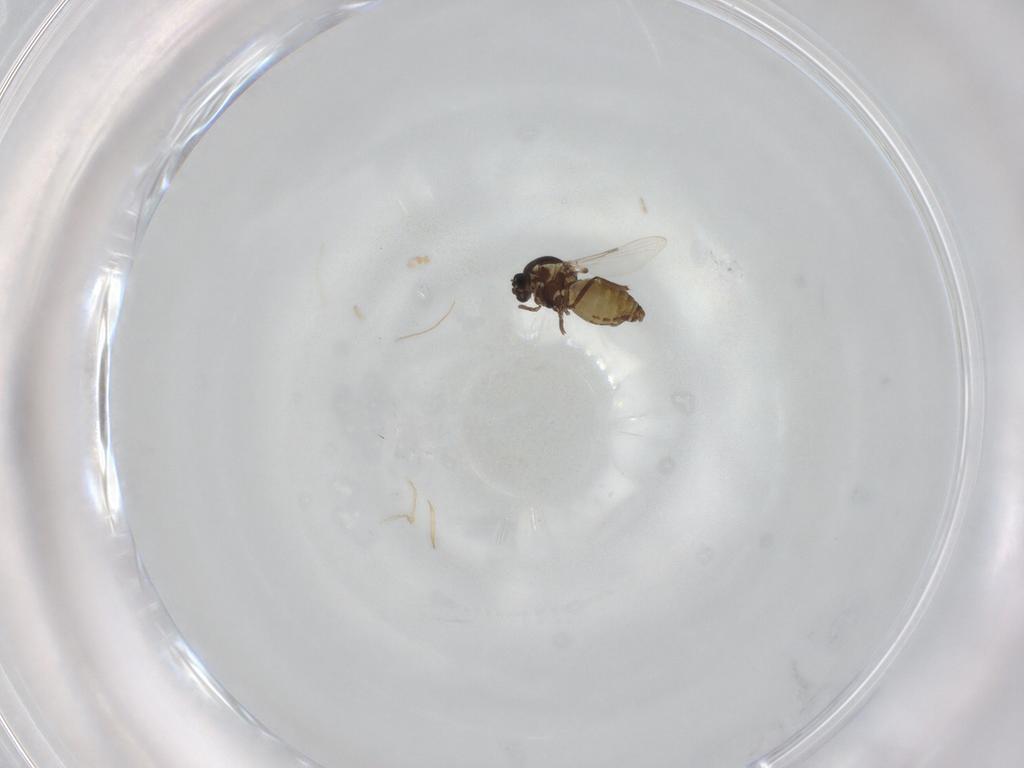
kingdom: Animalia
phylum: Arthropoda
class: Insecta
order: Diptera
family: Ceratopogonidae
